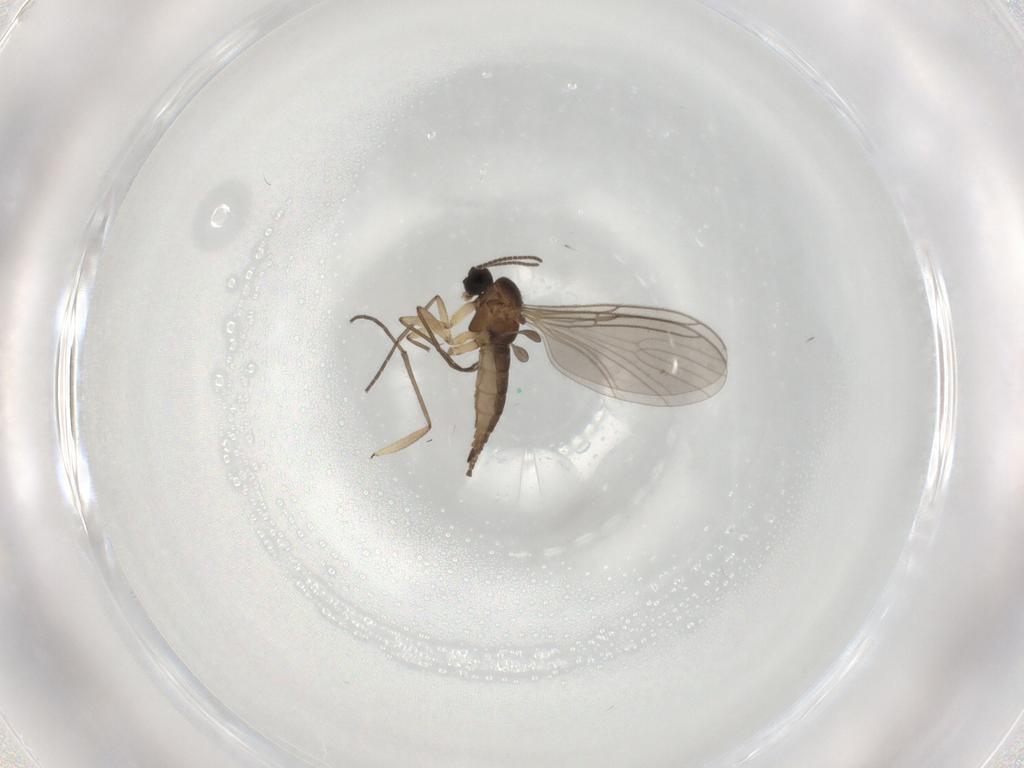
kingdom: Animalia
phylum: Arthropoda
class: Insecta
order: Diptera
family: Sciaridae
